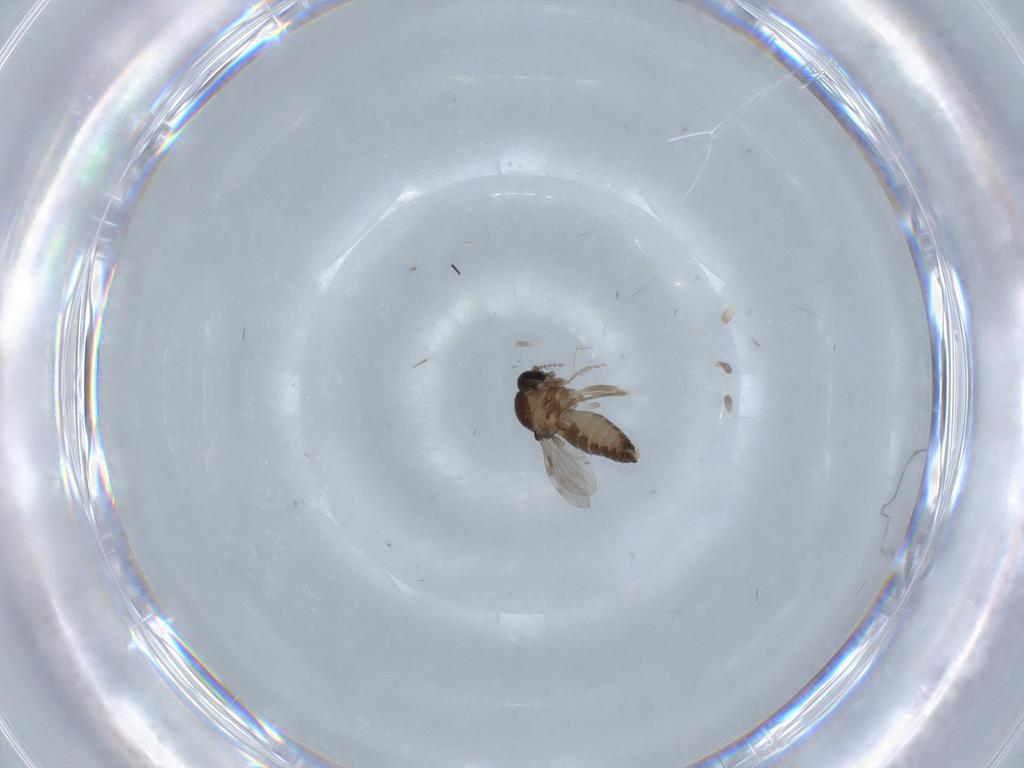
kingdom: Animalia
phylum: Arthropoda
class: Insecta
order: Diptera
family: Ceratopogonidae
